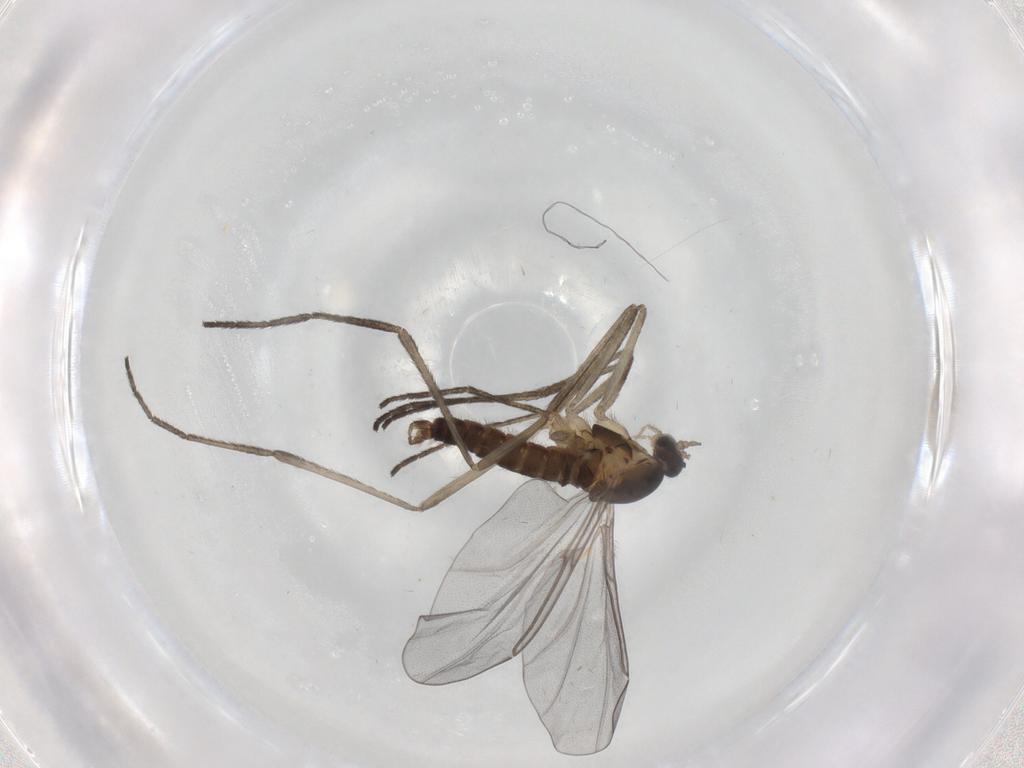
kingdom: Animalia
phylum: Arthropoda
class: Insecta
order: Diptera
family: Cecidomyiidae
